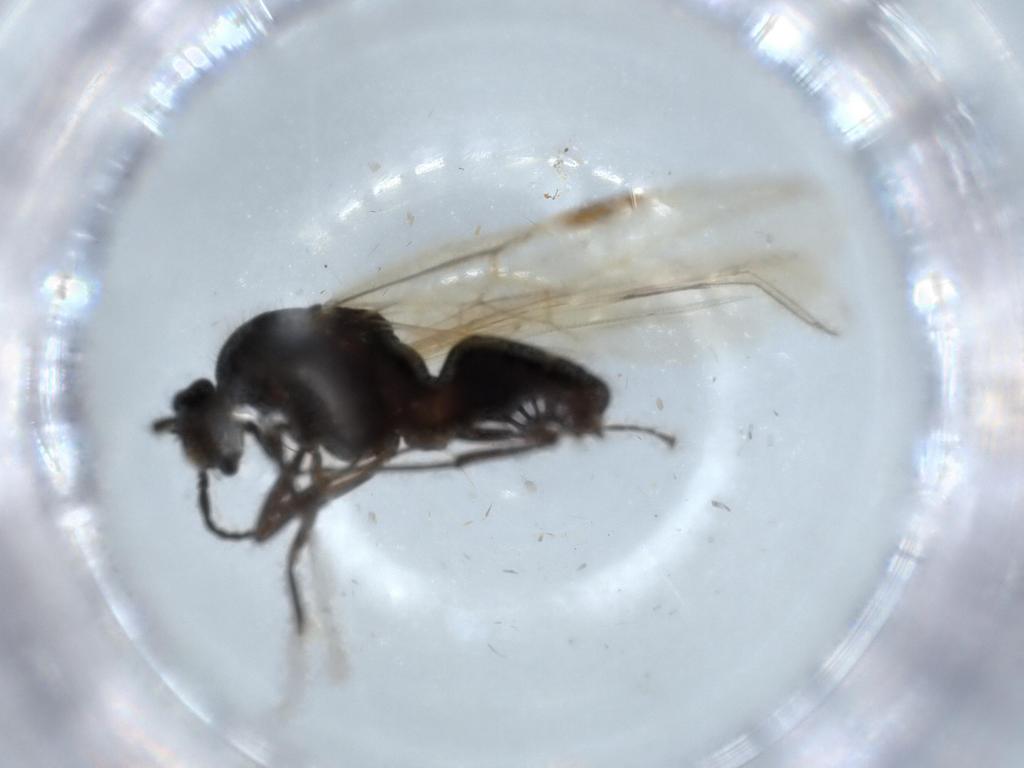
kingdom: Animalia
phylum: Arthropoda
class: Insecta
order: Hymenoptera
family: Formicidae
